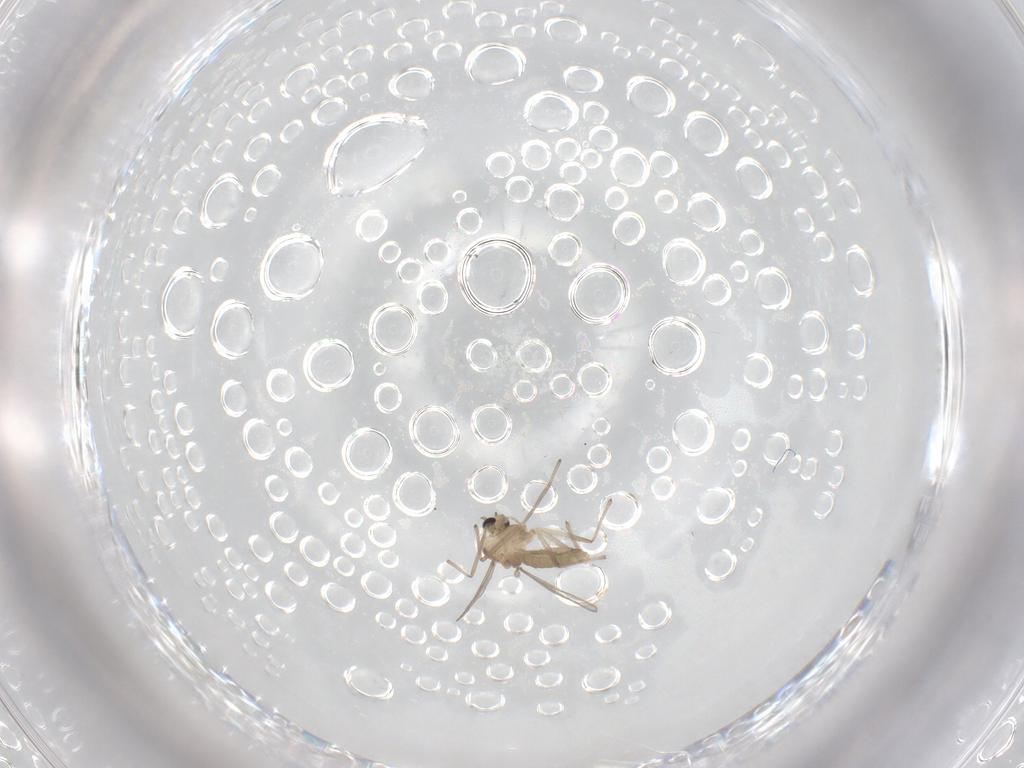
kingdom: Animalia
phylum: Arthropoda
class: Insecta
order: Diptera
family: Chironomidae
